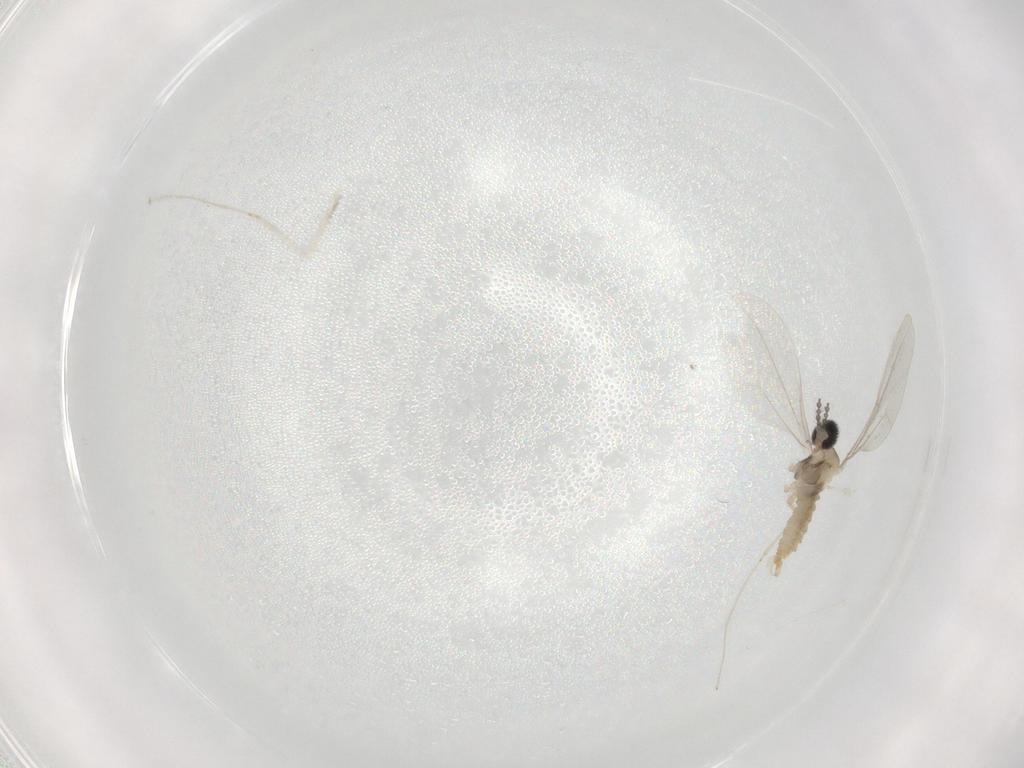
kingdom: Animalia
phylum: Arthropoda
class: Insecta
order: Diptera
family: Cecidomyiidae
